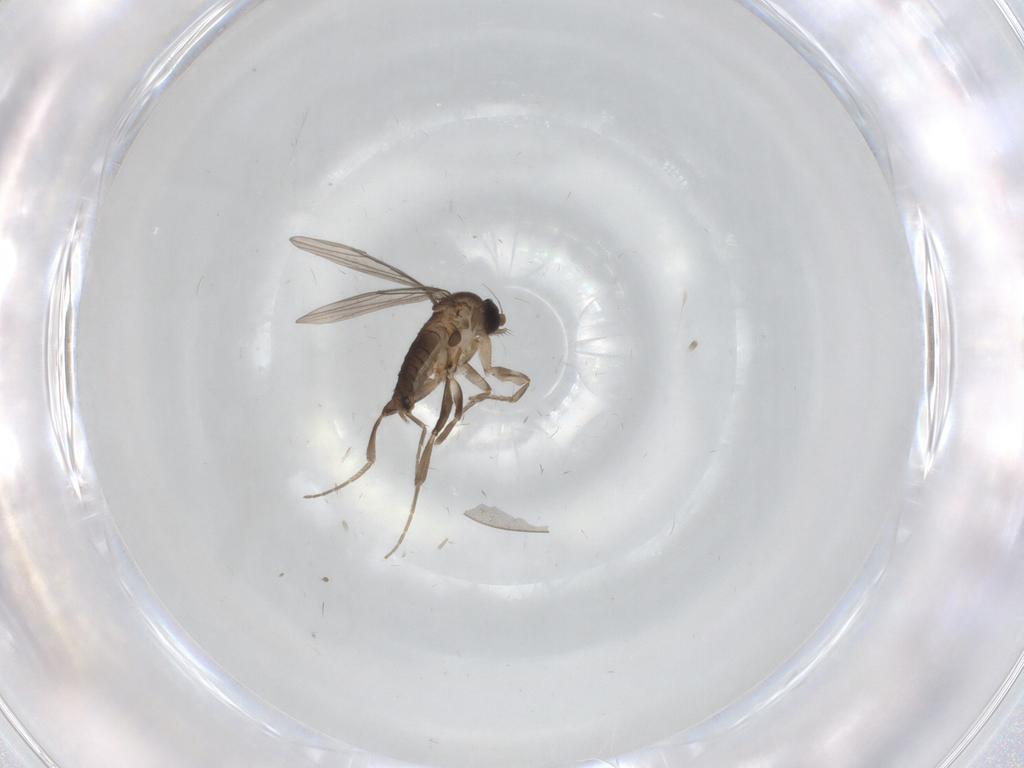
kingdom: Animalia
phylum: Arthropoda
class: Insecta
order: Diptera
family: Phoridae
